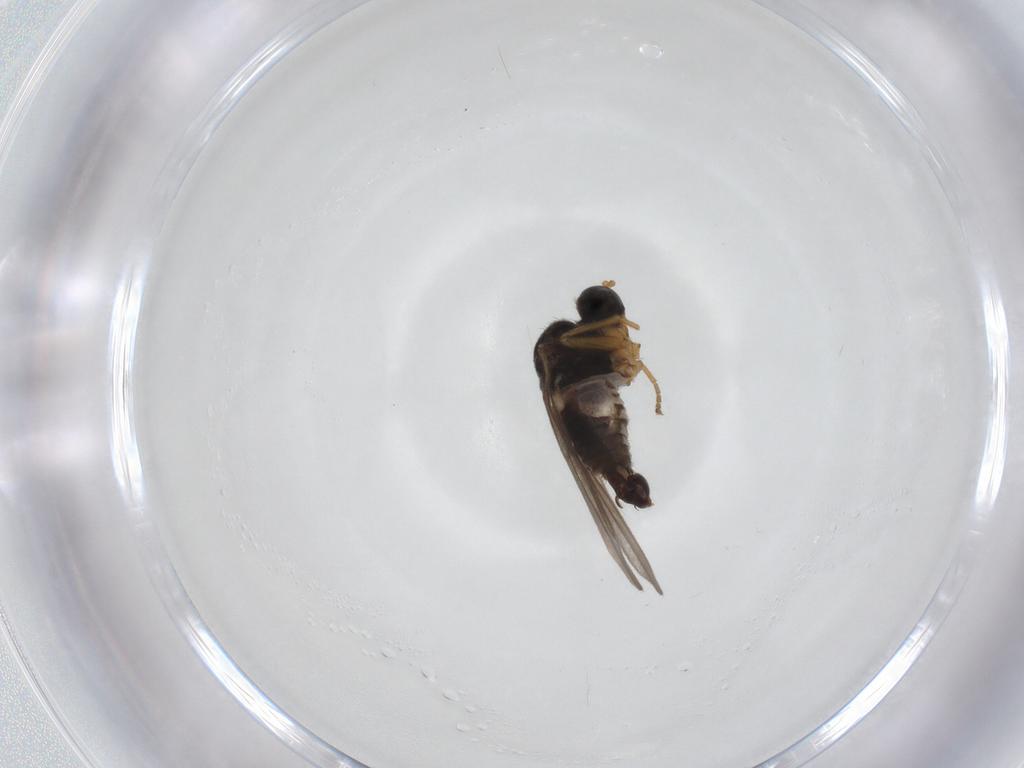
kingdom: Animalia
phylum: Arthropoda
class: Insecta
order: Diptera
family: Hybotidae
